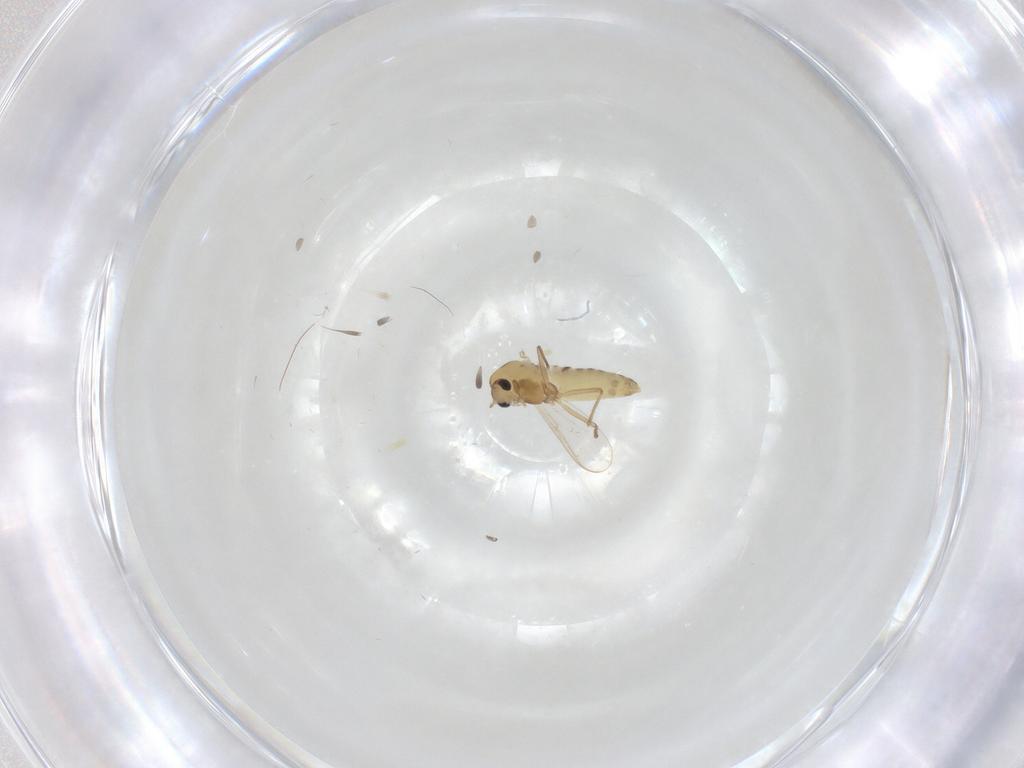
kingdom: Animalia
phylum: Arthropoda
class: Insecta
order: Diptera
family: Chironomidae
